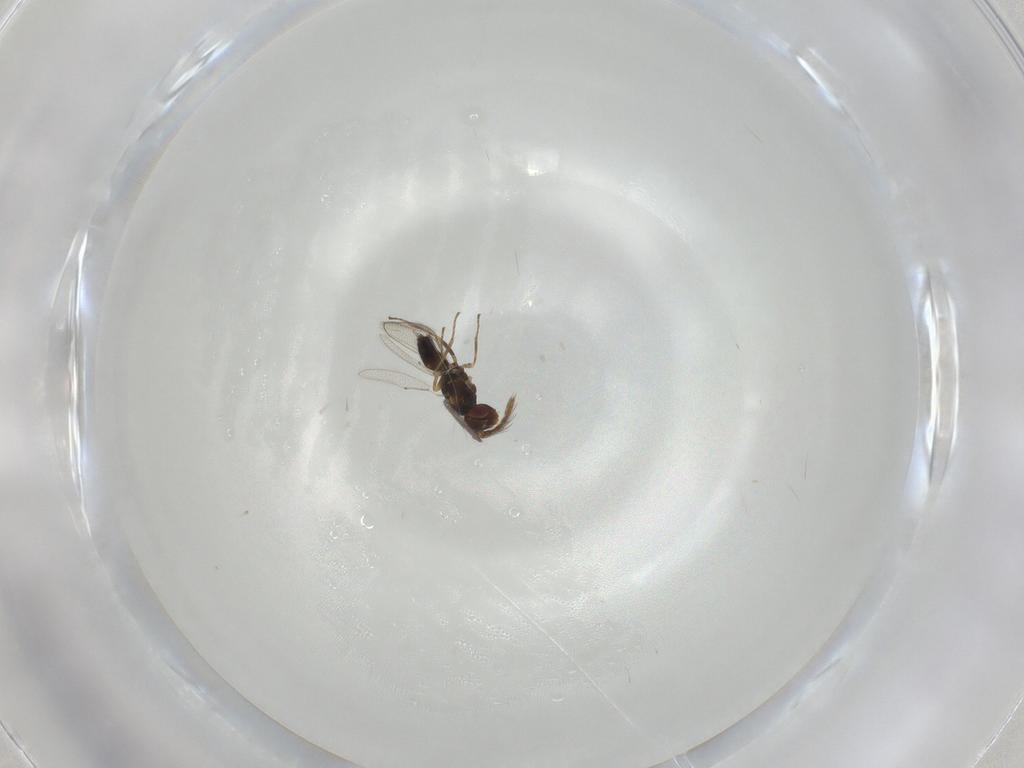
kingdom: Animalia
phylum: Arthropoda
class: Insecta
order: Hymenoptera
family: Eulophidae
